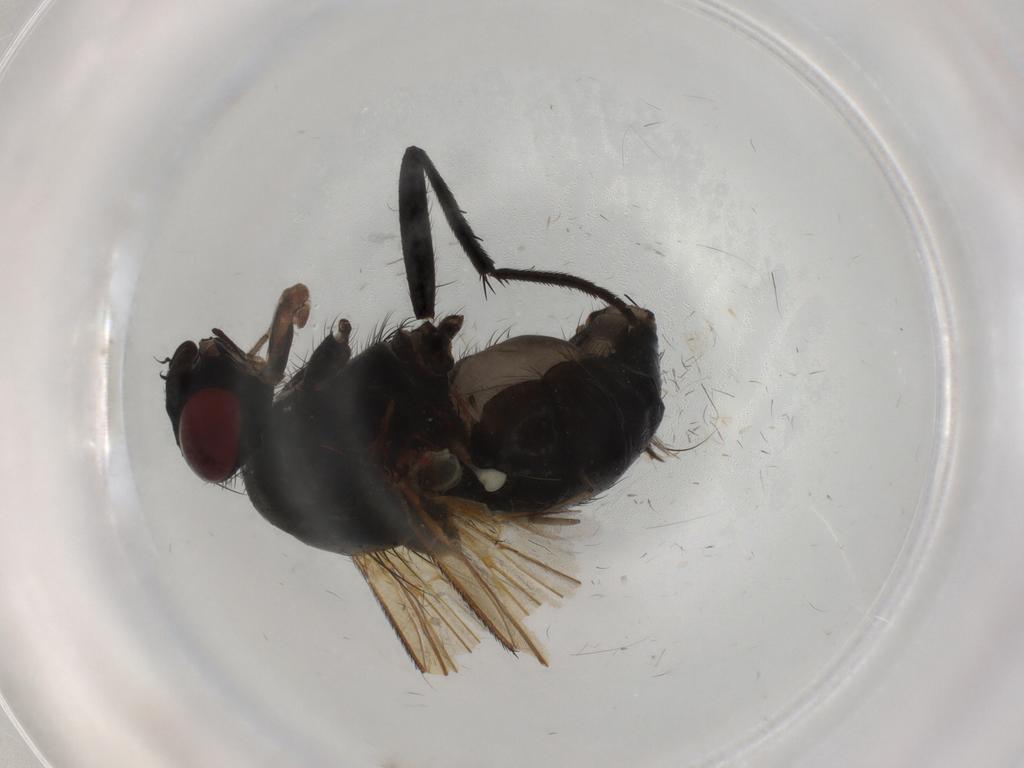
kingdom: Animalia
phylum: Arthropoda
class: Insecta
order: Diptera
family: Anthomyiidae
